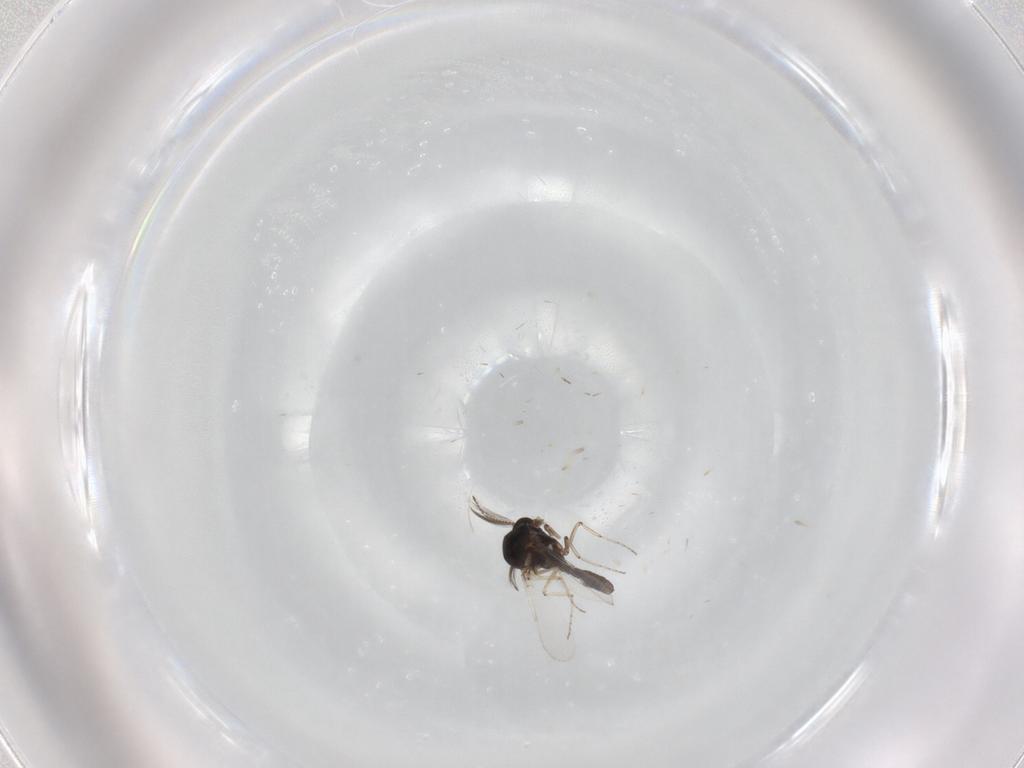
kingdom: Animalia
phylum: Arthropoda
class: Insecta
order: Diptera
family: Ceratopogonidae
